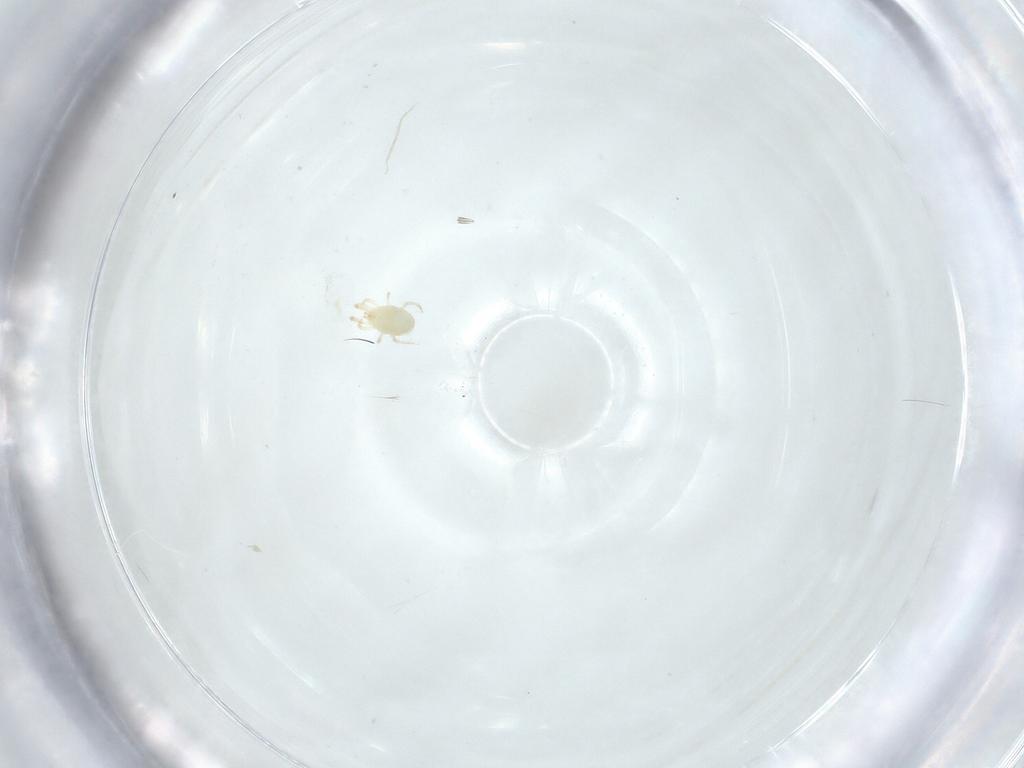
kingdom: Animalia
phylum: Arthropoda
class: Arachnida
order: Mesostigmata
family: Phytoseiidae
